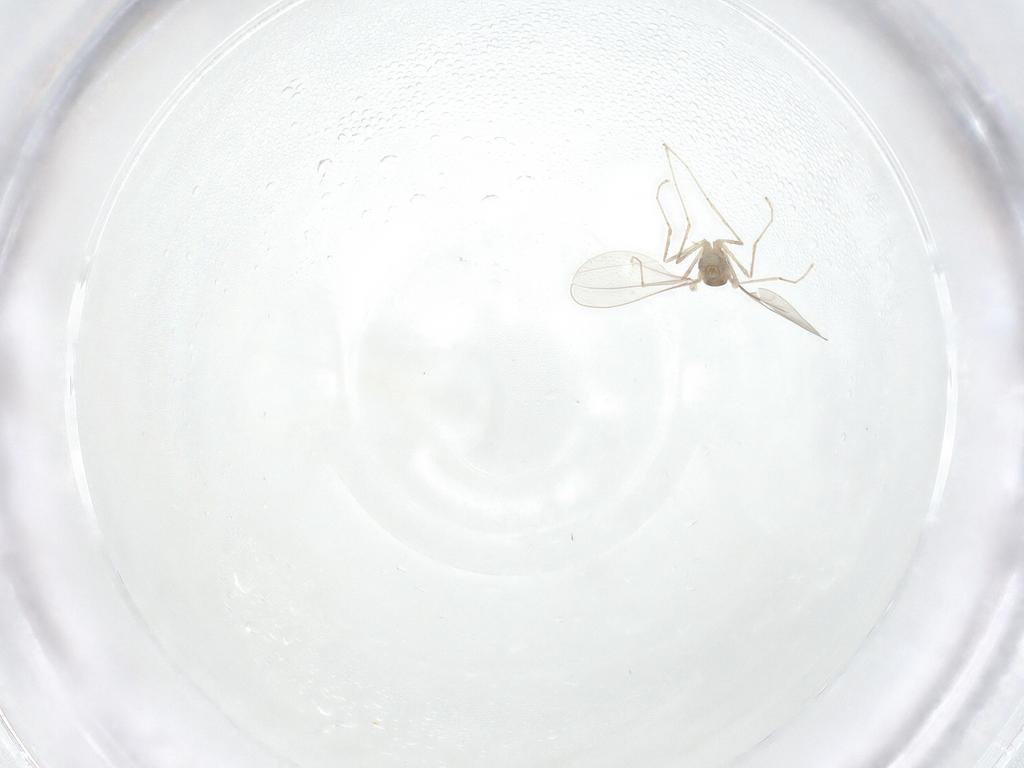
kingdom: Animalia
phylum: Arthropoda
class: Insecta
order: Diptera
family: Cecidomyiidae
